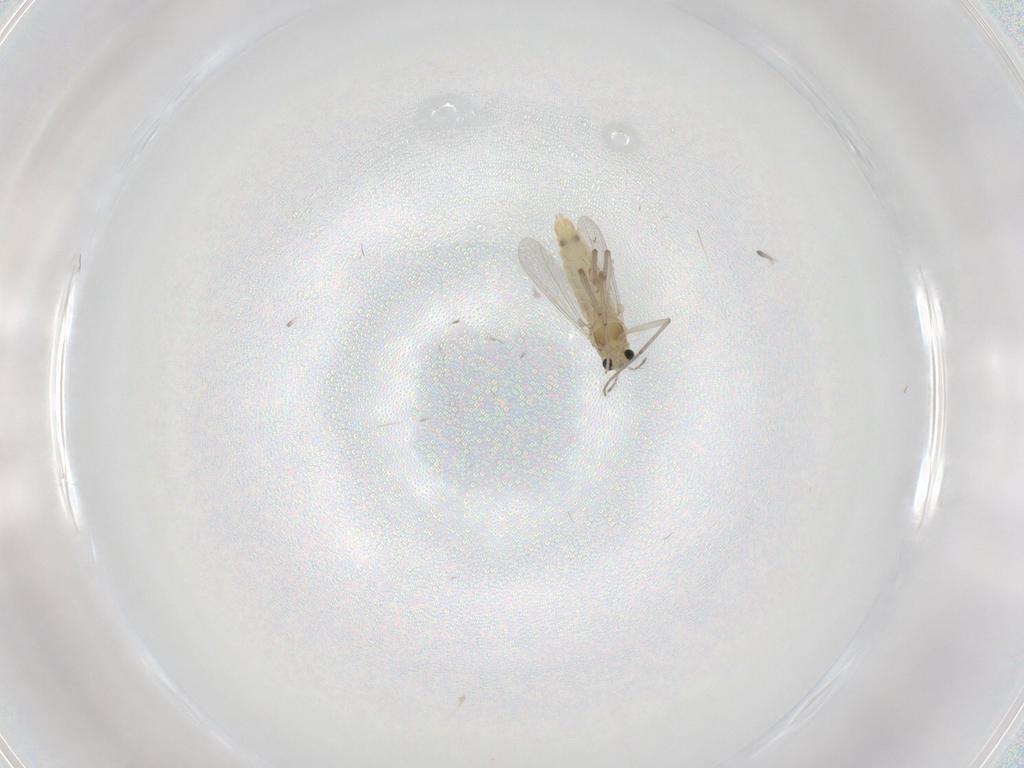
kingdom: Animalia
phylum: Arthropoda
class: Insecta
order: Diptera
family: Chironomidae
